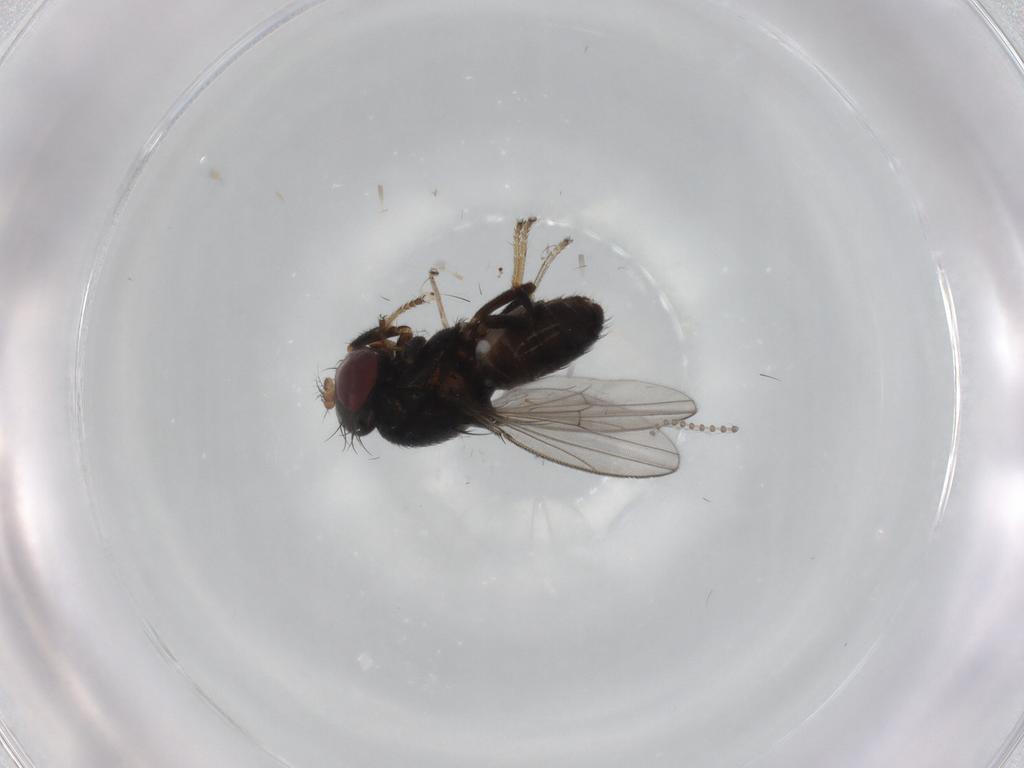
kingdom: Animalia
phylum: Arthropoda
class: Insecta
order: Diptera
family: Ephydridae
